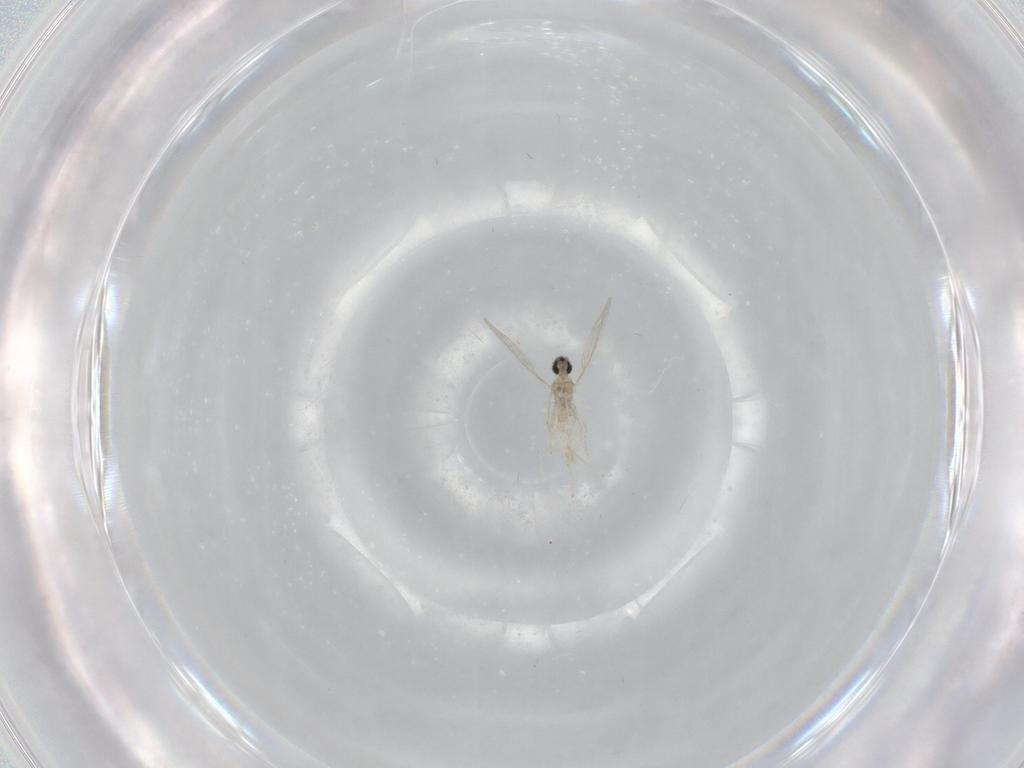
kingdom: Animalia
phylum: Arthropoda
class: Insecta
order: Diptera
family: Cecidomyiidae
